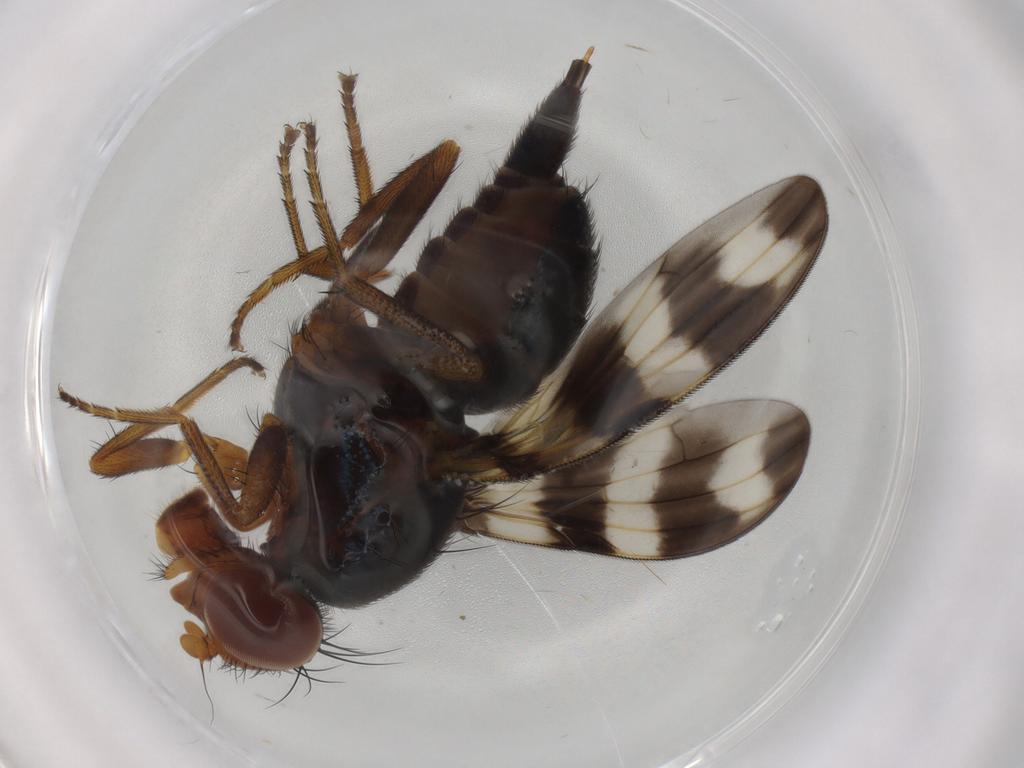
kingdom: Animalia
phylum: Arthropoda
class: Insecta
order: Diptera
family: Ulidiidae
